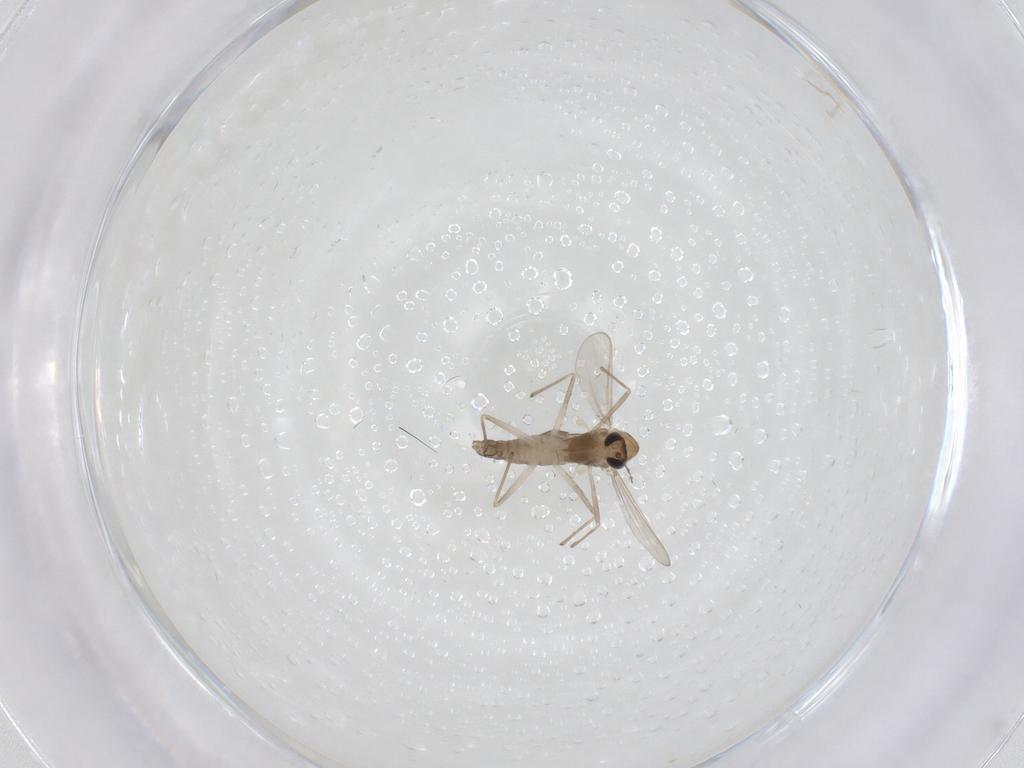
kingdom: Animalia
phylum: Arthropoda
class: Insecta
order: Diptera
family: Chironomidae
